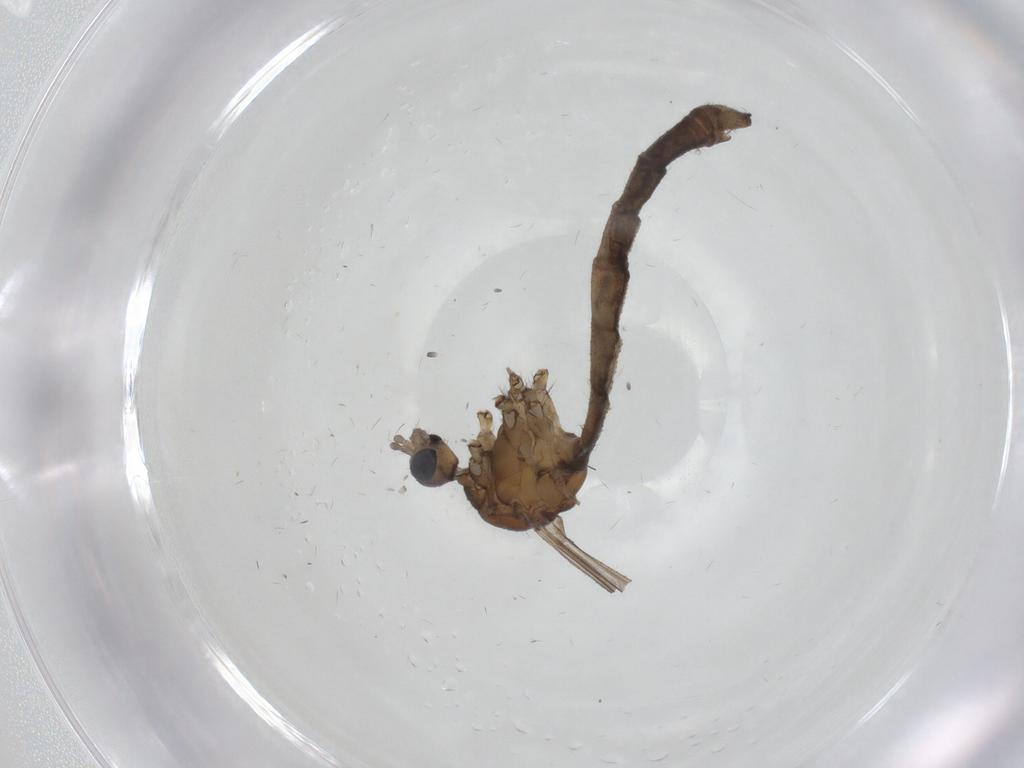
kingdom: Animalia
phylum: Arthropoda
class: Insecta
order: Diptera
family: Limoniidae
